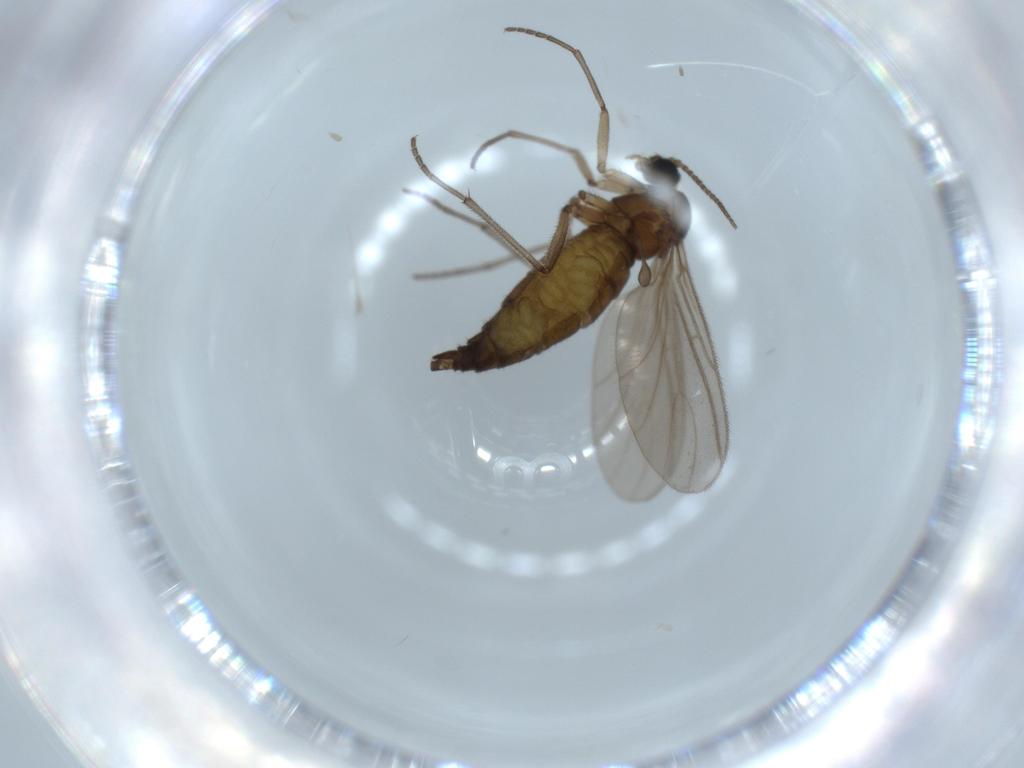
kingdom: Animalia
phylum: Arthropoda
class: Insecta
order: Diptera
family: Sciaridae
